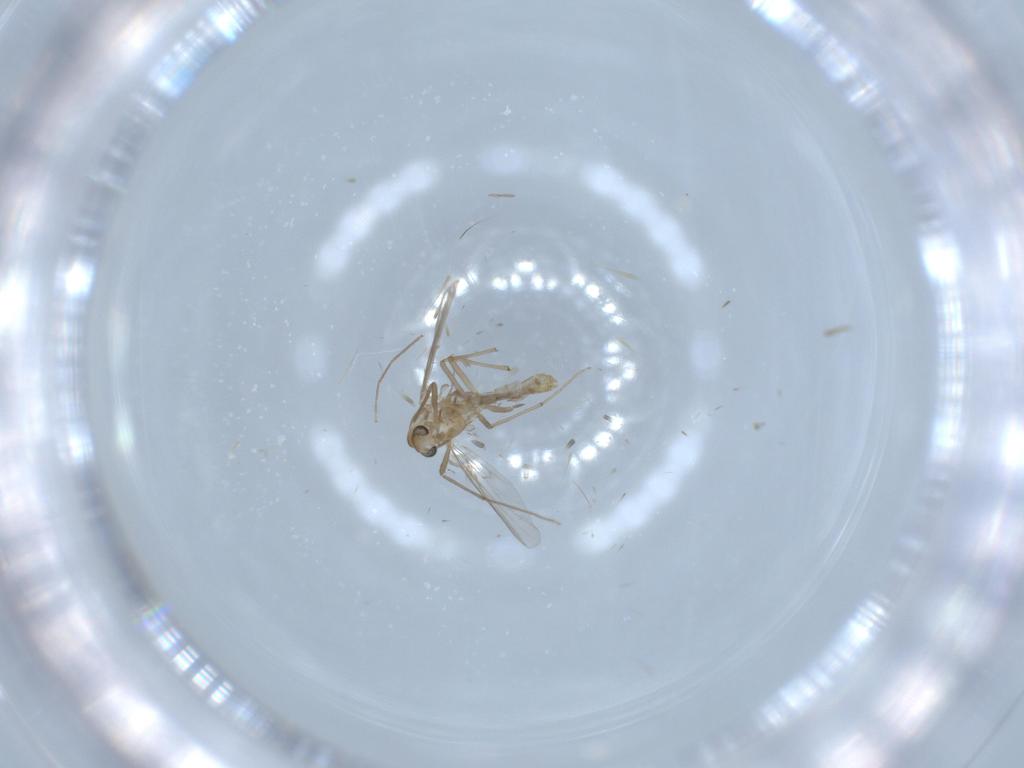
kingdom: Animalia
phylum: Arthropoda
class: Insecta
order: Diptera
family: Chironomidae
